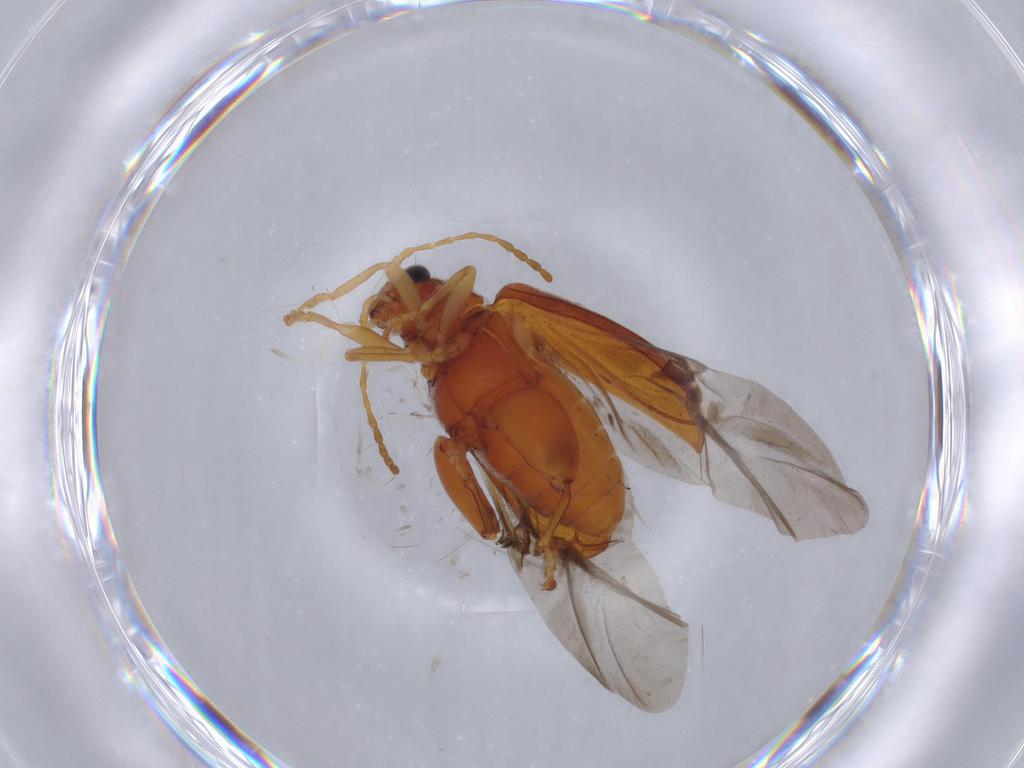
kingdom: Animalia
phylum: Arthropoda
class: Insecta
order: Coleoptera
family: Chrysomelidae
